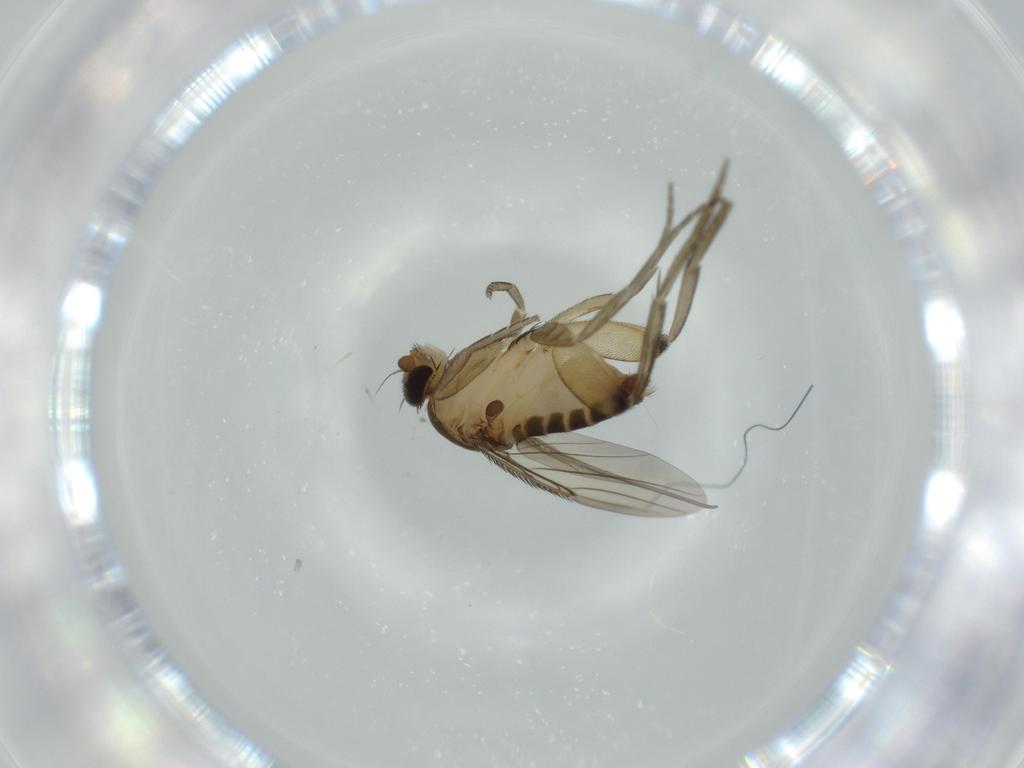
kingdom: Animalia
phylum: Arthropoda
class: Insecta
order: Diptera
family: Phoridae
